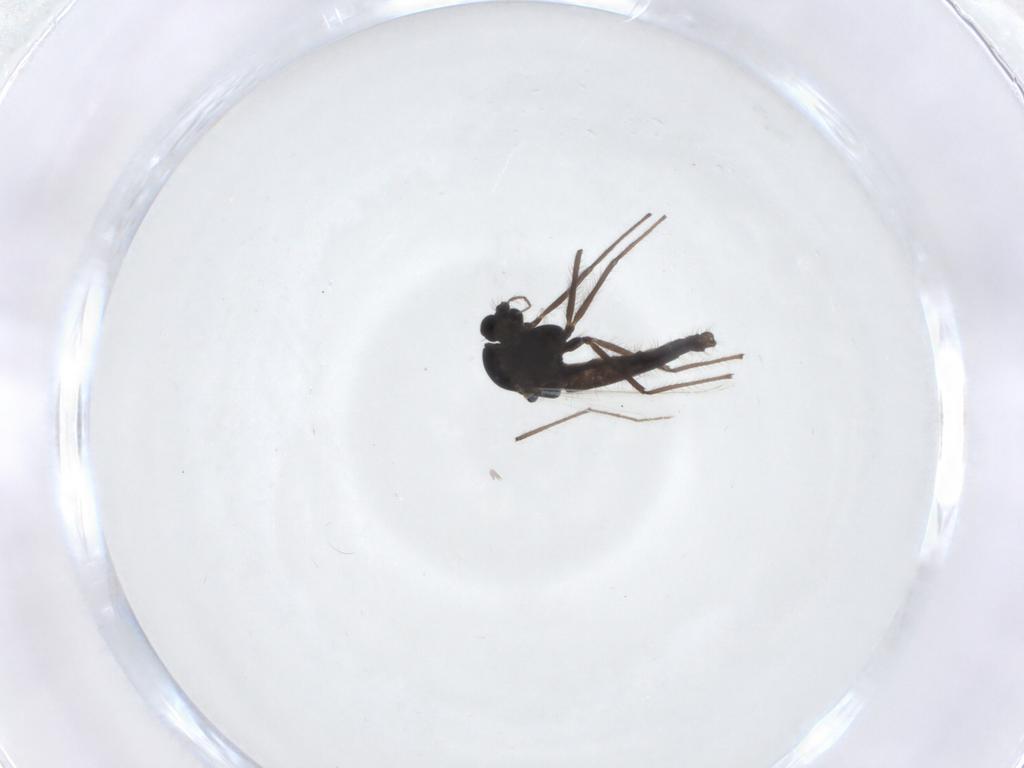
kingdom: Animalia
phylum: Arthropoda
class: Insecta
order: Diptera
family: Chironomidae
